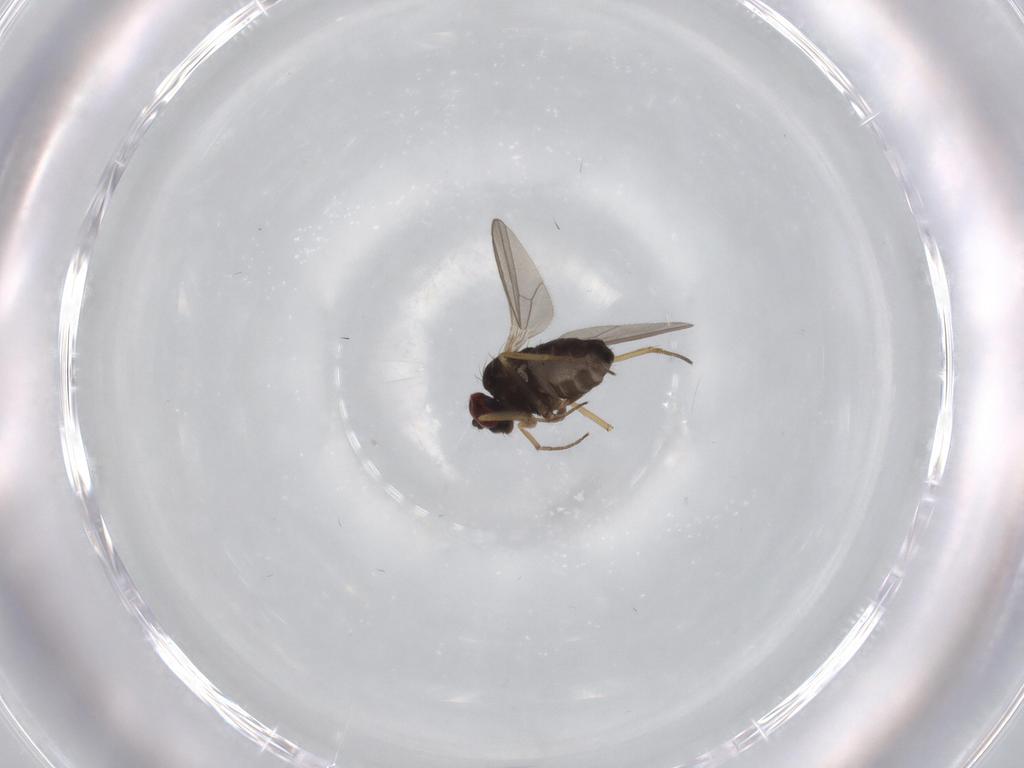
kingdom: Animalia
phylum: Arthropoda
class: Insecta
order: Diptera
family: Dolichopodidae
